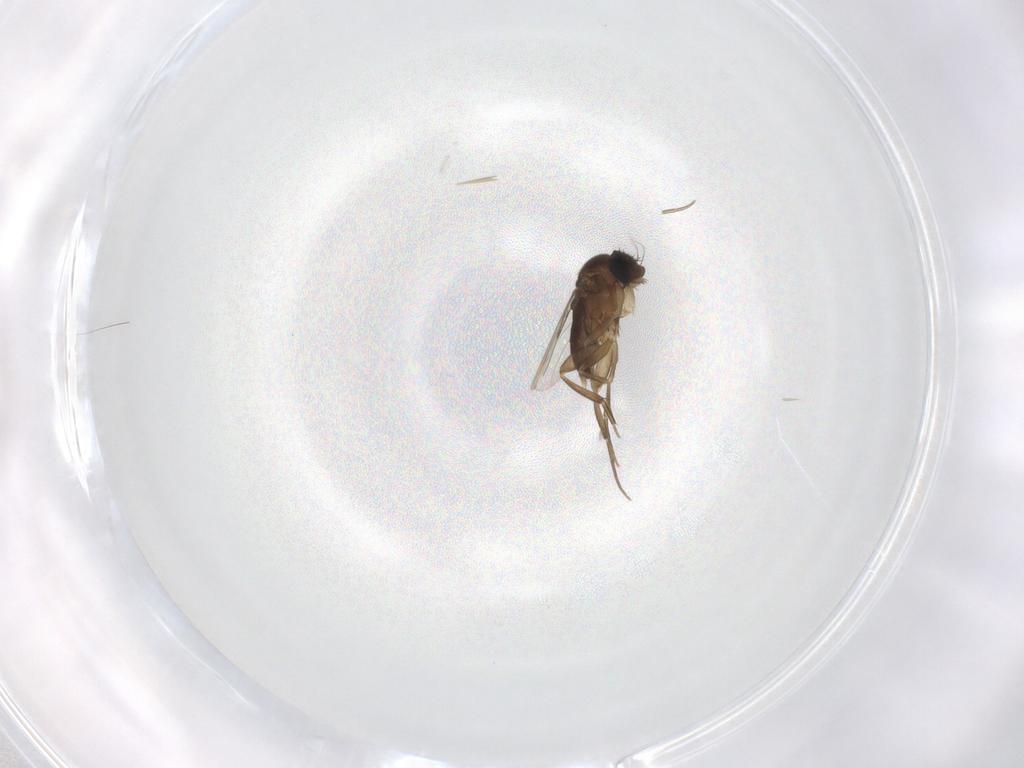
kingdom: Animalia
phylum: Arthropoda
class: Insecta
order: Diptera
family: Phoridae
